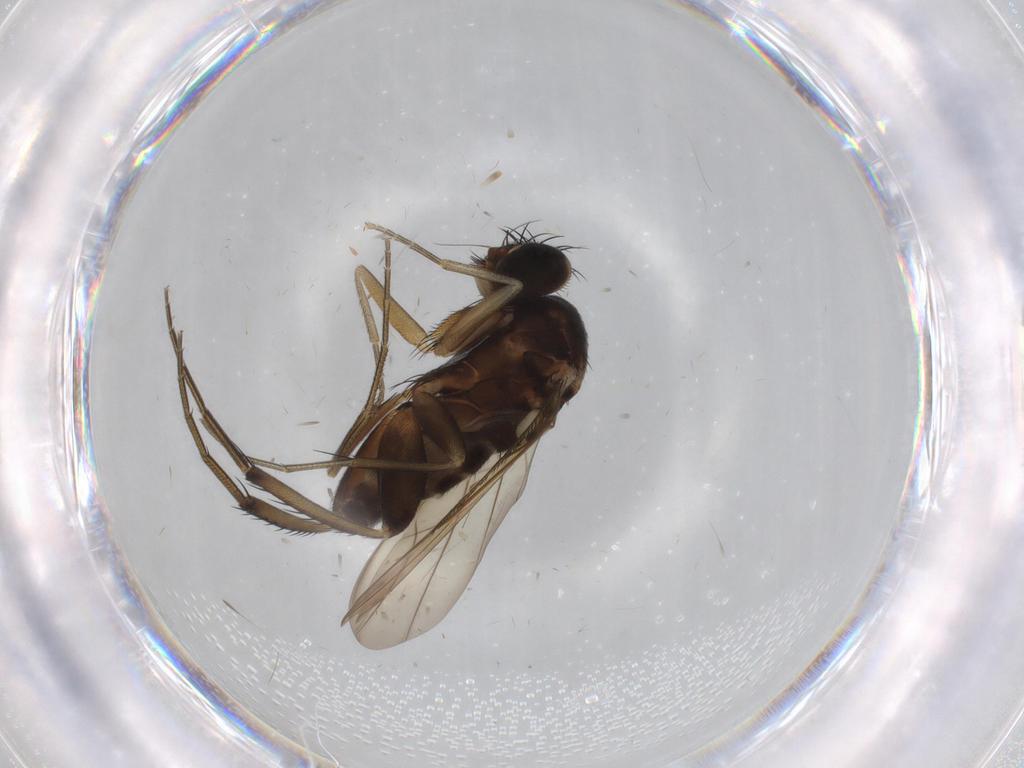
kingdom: Animalia
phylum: Arthropoda
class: Insecta
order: Diptera
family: Phoridae
